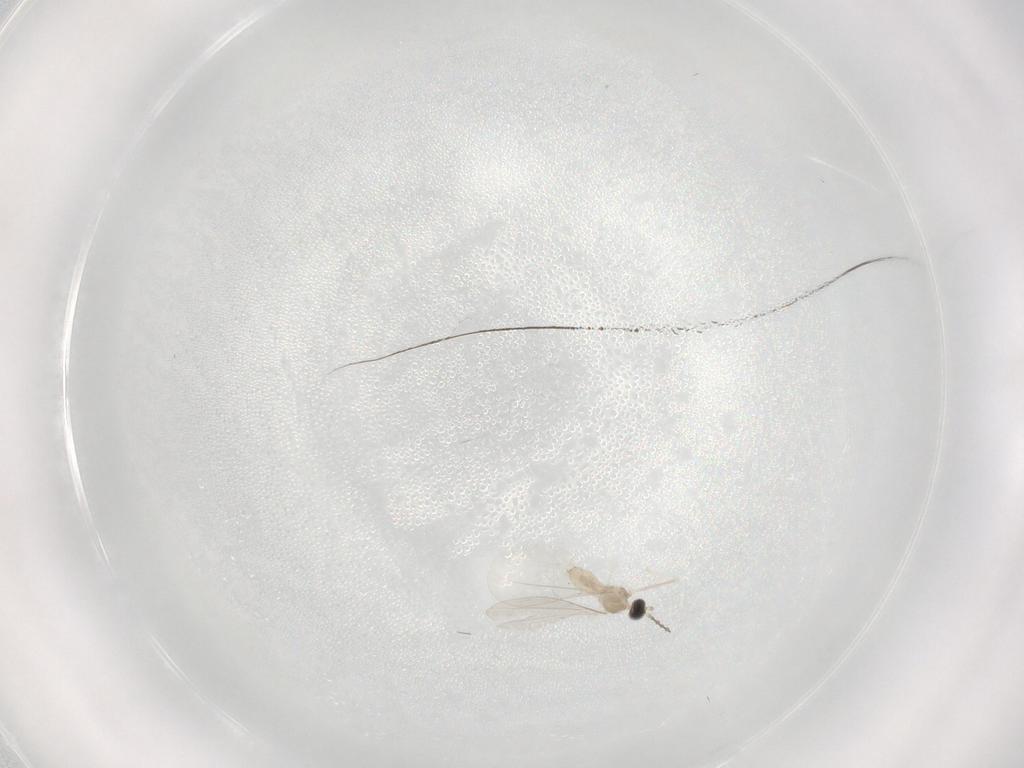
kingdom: Animalia
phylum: Arthropoda
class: Insecta
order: Diptera
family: Cecidomyiidae
